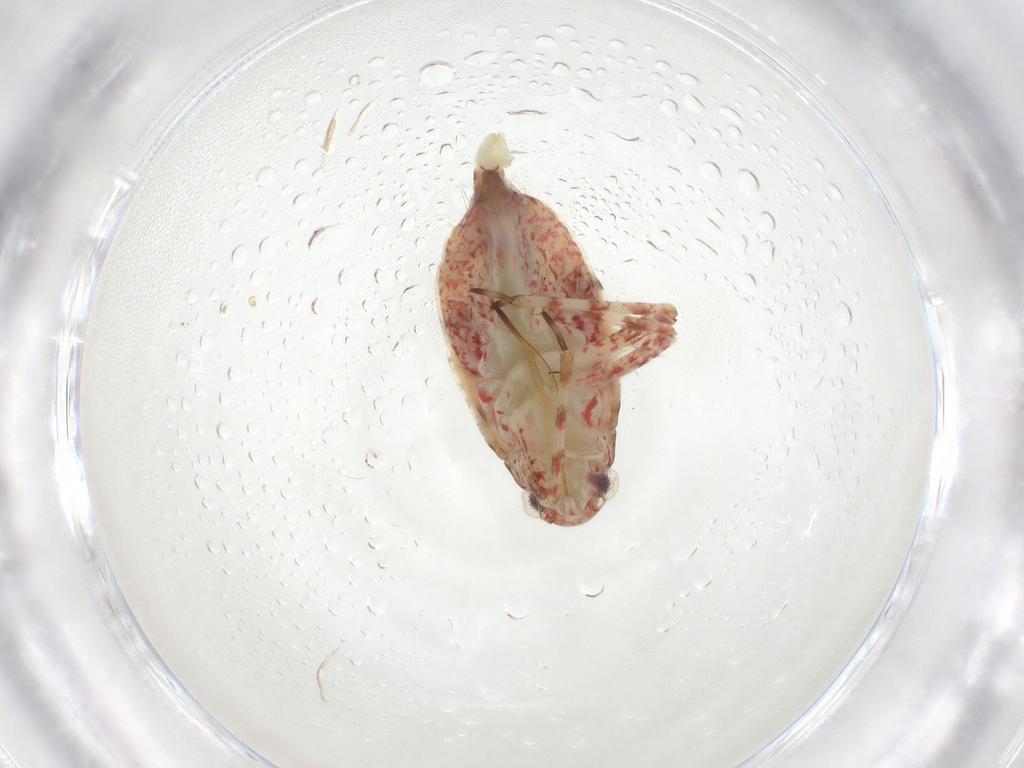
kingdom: Animalia
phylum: Arthropoda
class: Insecta
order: Hemiptera
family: Miridae
